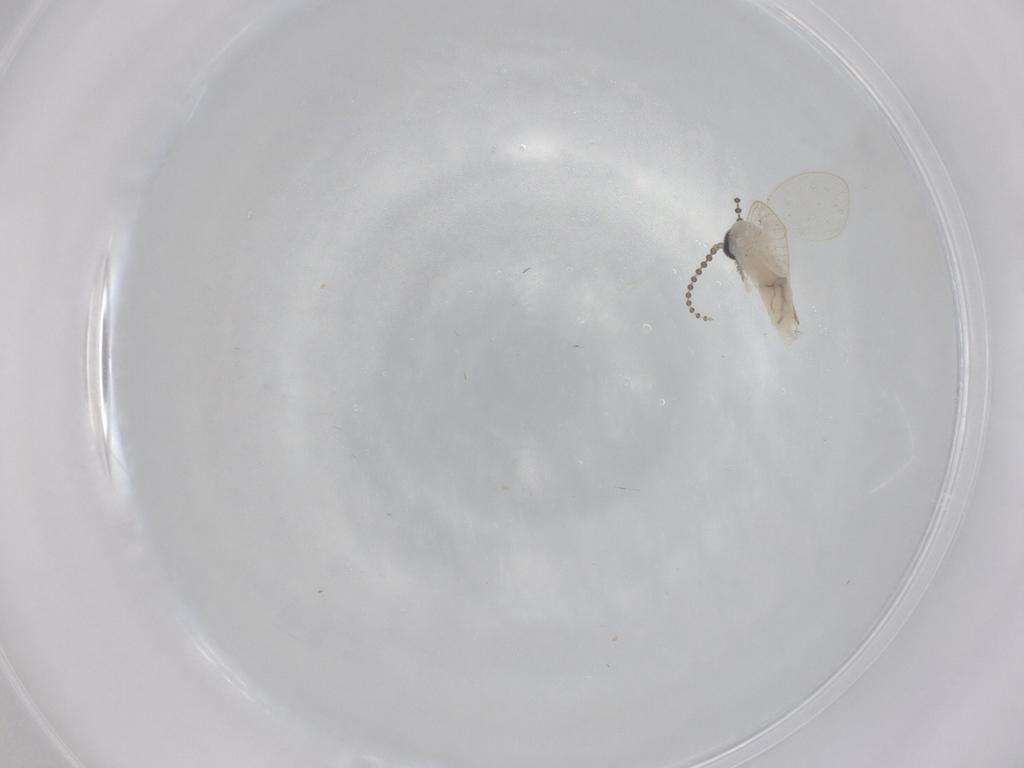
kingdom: Animalia
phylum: Arthropoda
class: Insecta
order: Diptera
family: Psychodidae
